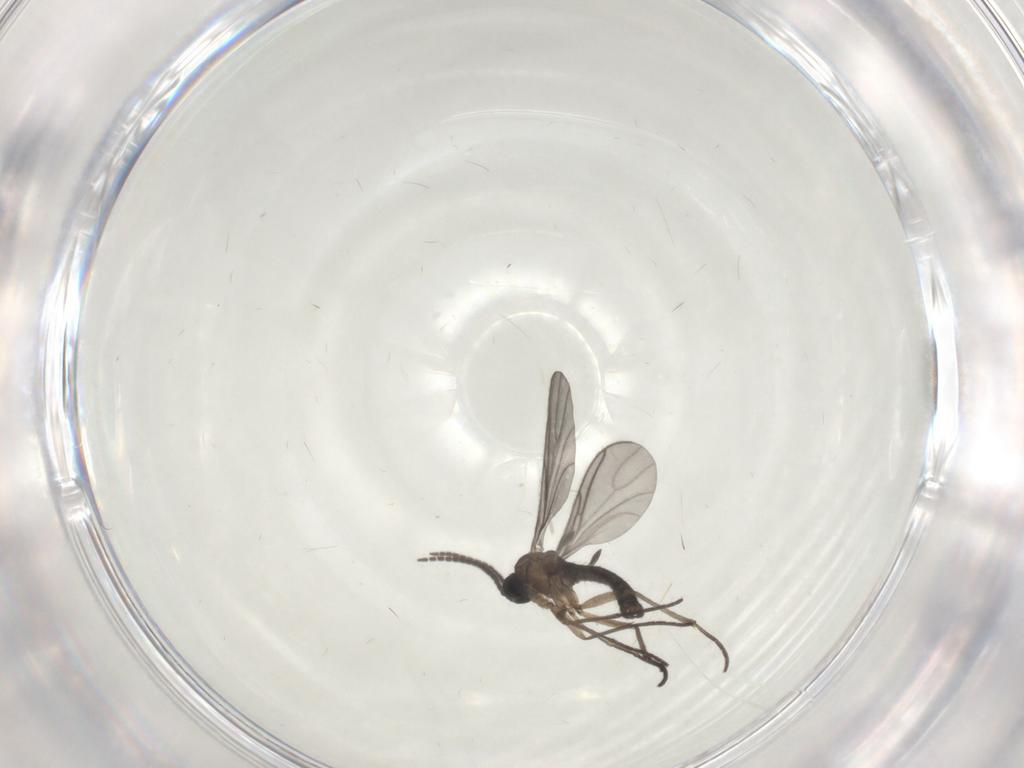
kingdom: Animalia
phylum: Arthropoda
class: Insecta
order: Diptera
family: Sciaridae
